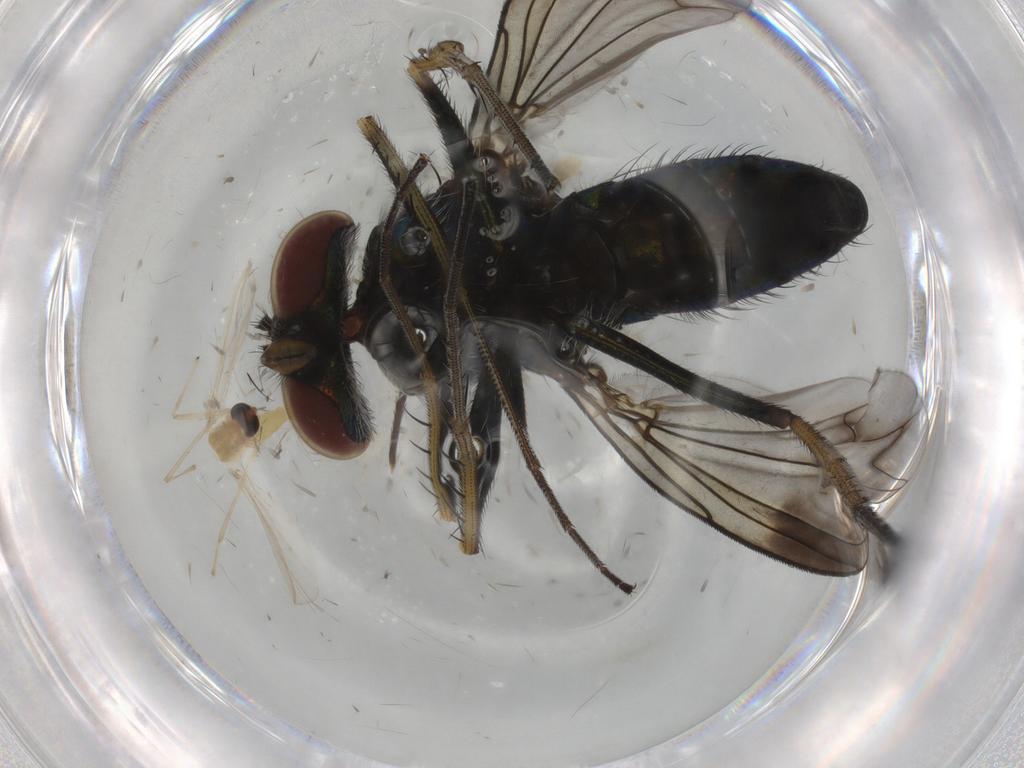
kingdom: Animalia
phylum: Arthropoda
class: Insecta
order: Diptera
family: Dolichopodidae
